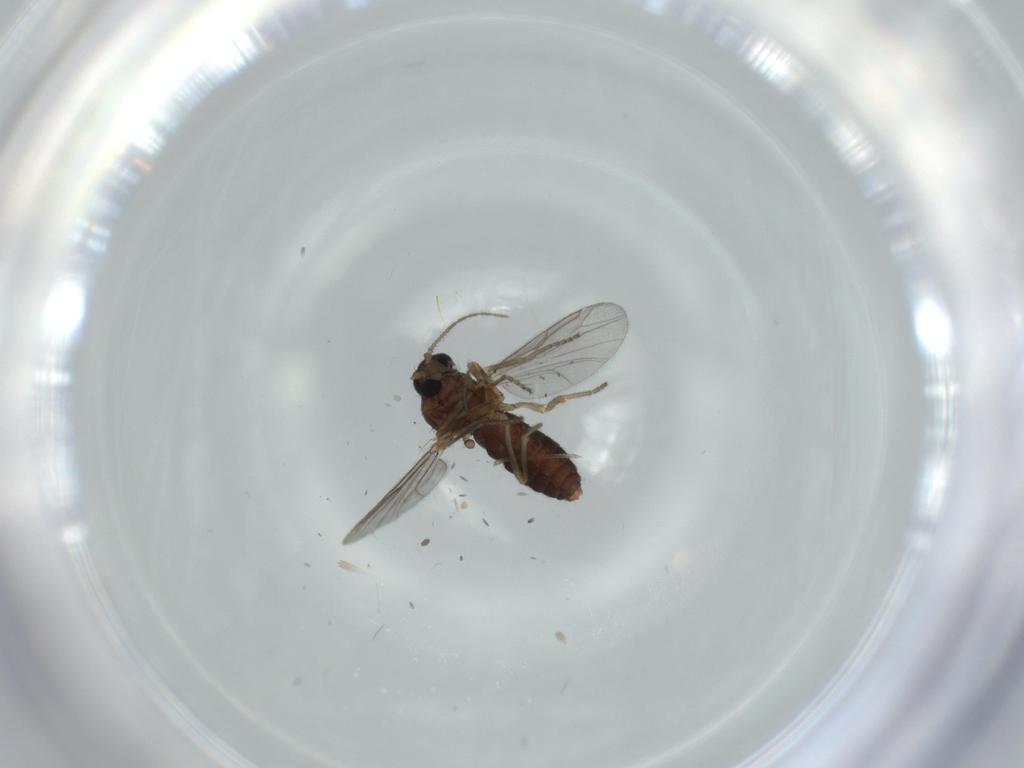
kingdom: Animalia
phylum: Arthropoda
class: Insecta
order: Diptera
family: Ceratopogonidae
